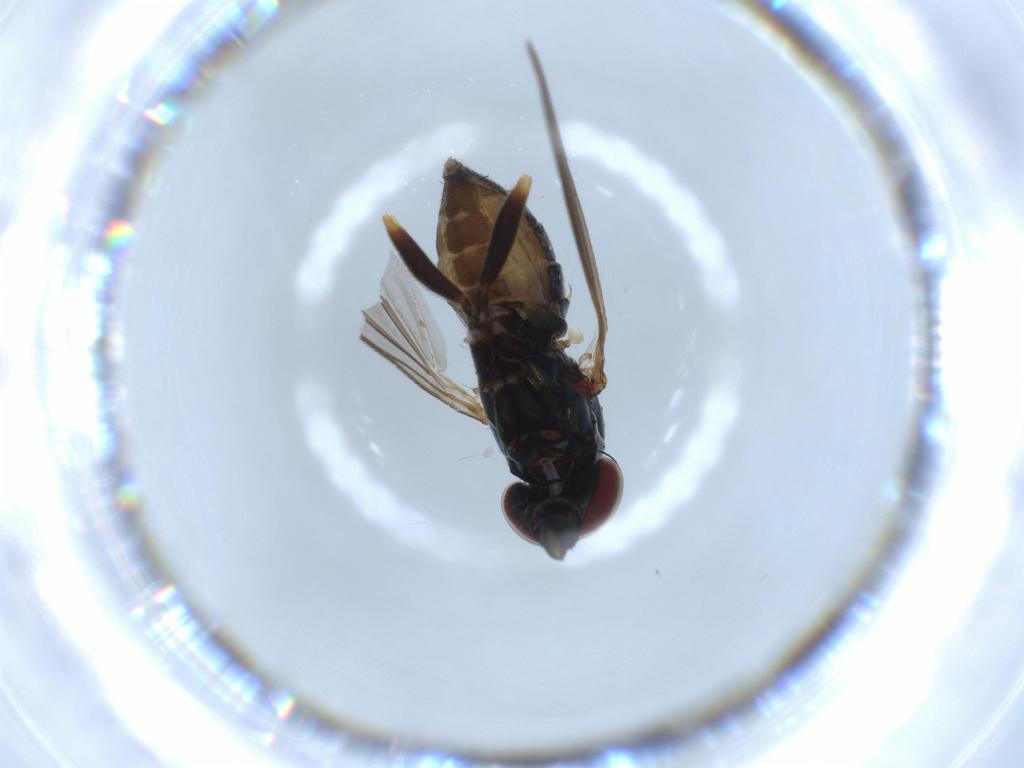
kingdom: Animalia
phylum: Arthropoda
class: Insecta
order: Diptera
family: Dolichopodidae
